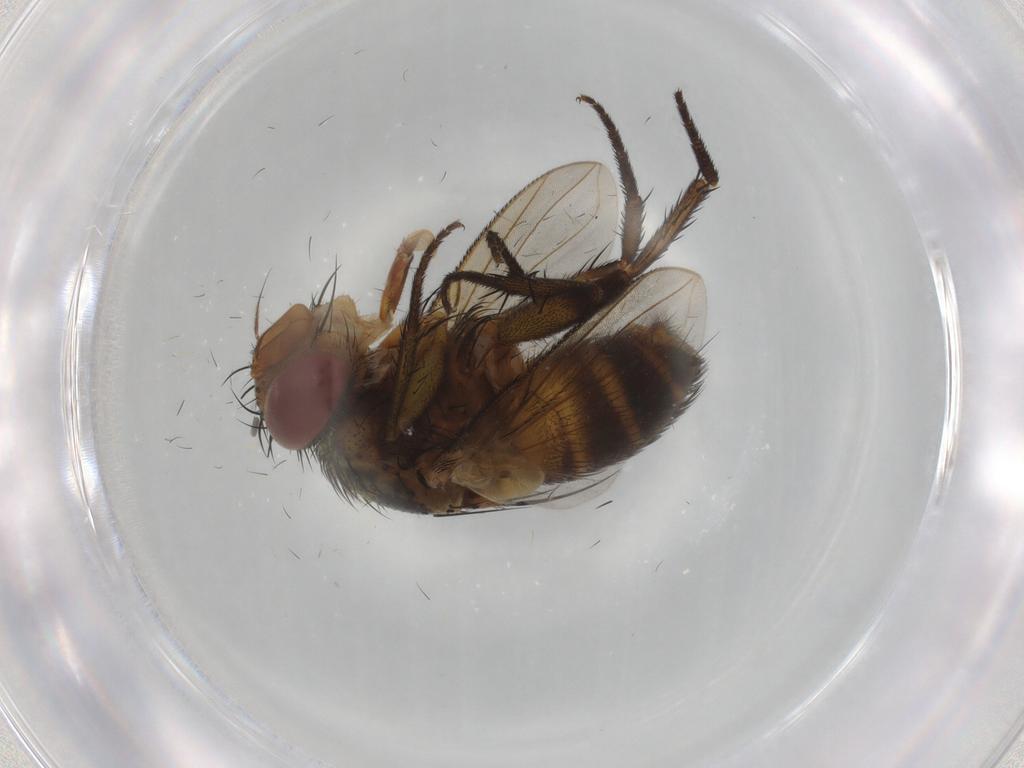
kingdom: Animalia
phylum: Arthropoda
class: Insecta
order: Diptera
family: Ceratopogonidae
